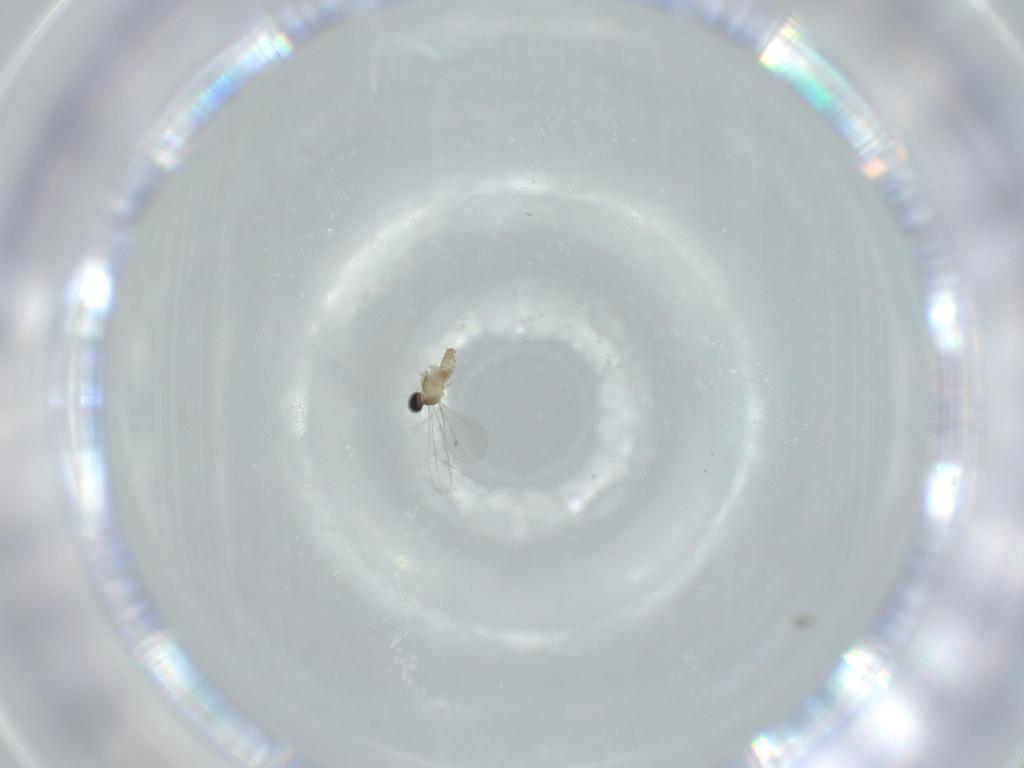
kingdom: Animalia
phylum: Arthropoda
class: Insecta
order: Diptera
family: Cecidomyiidae
